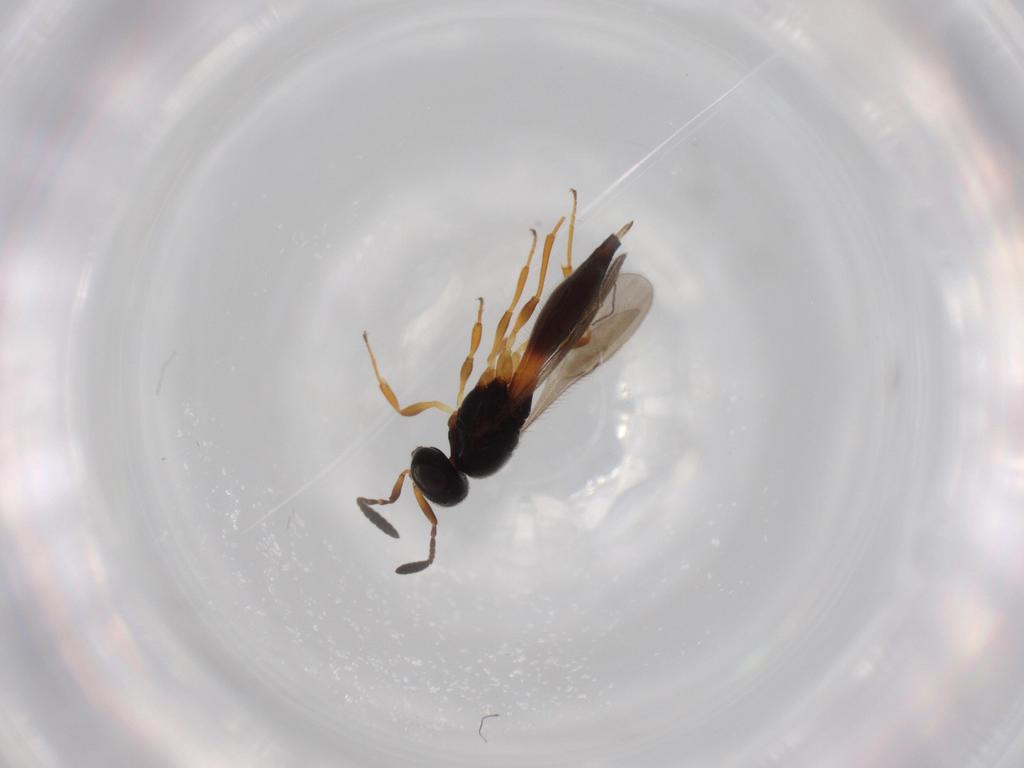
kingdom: Animalia
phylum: Arthropoda
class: Insecta
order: Hymenoptera
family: Scelionidae
